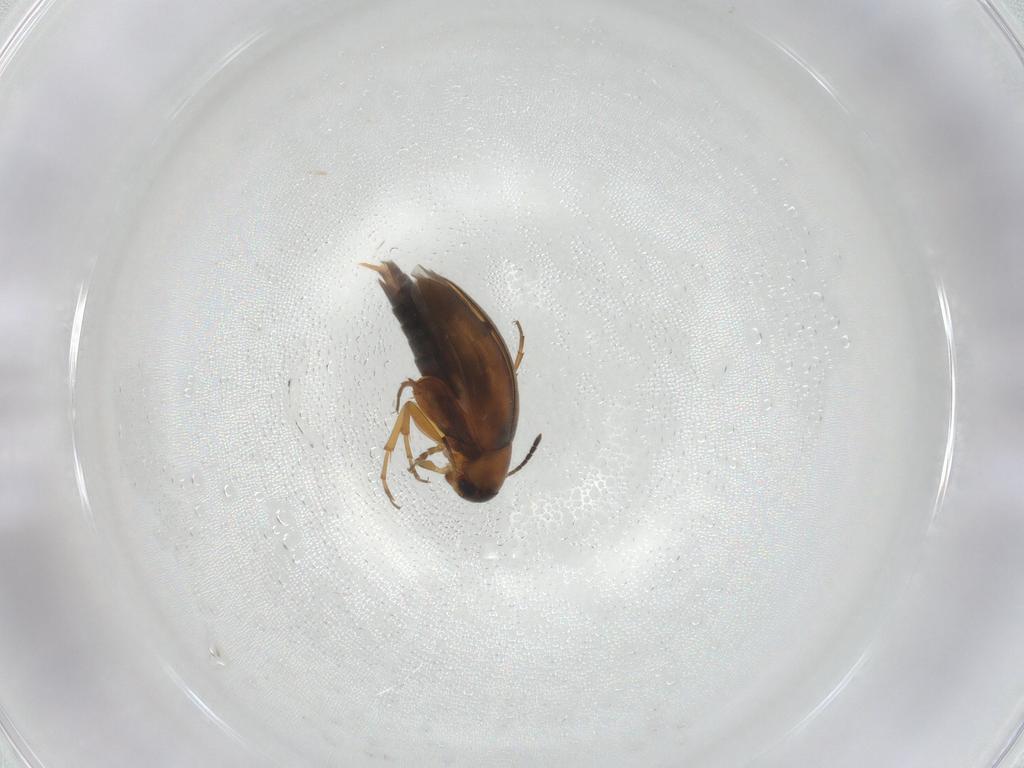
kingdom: Animalia
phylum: Arthropoda
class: Insecta
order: Coleoptera
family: Scraptiidae
